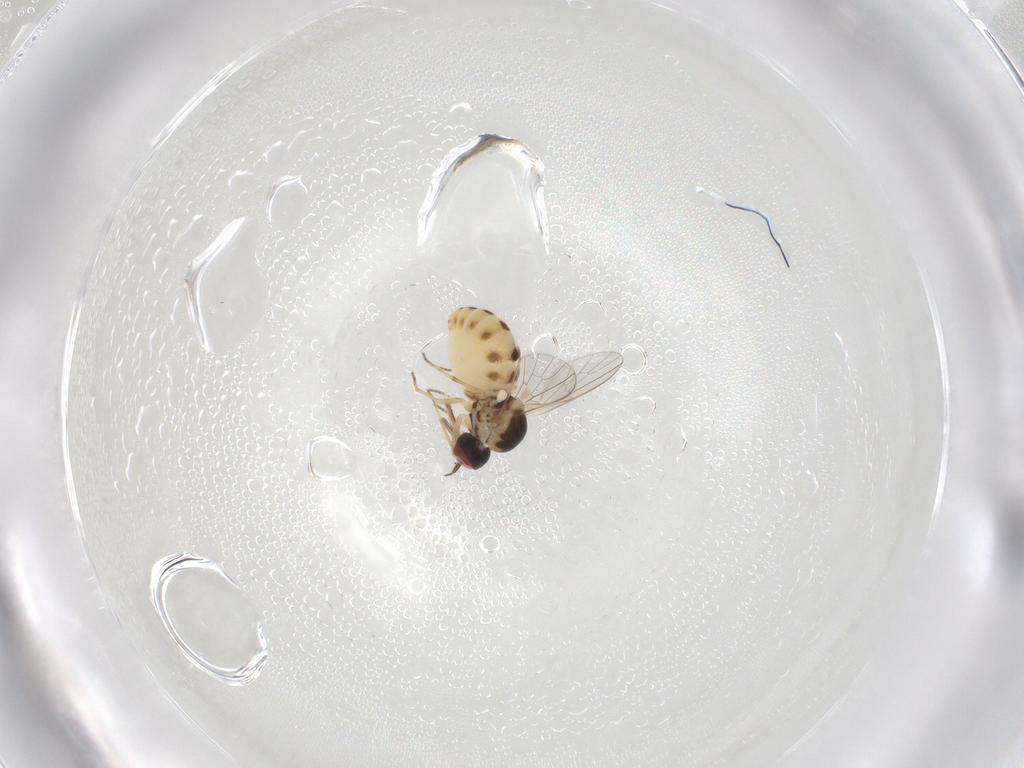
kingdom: Animalia
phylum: Arthropoda
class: Insecta
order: Diptera
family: Bombyliidae
